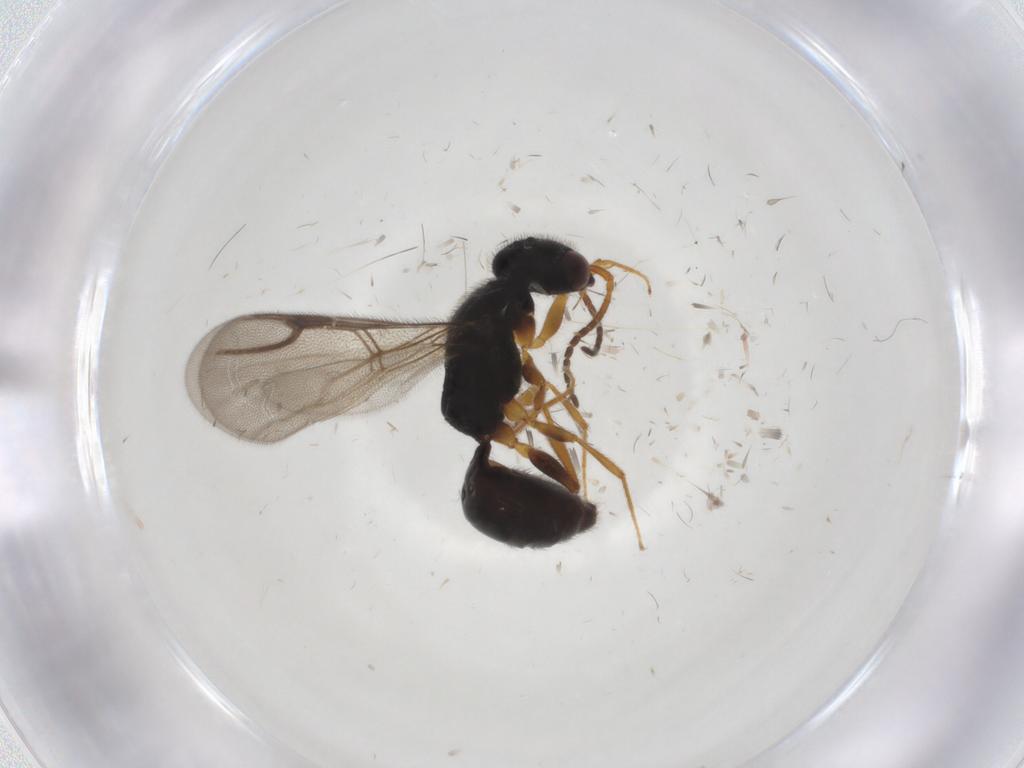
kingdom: Animalia
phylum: Arthropoda
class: Insecta
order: Hymenoptera
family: Bethylidae
